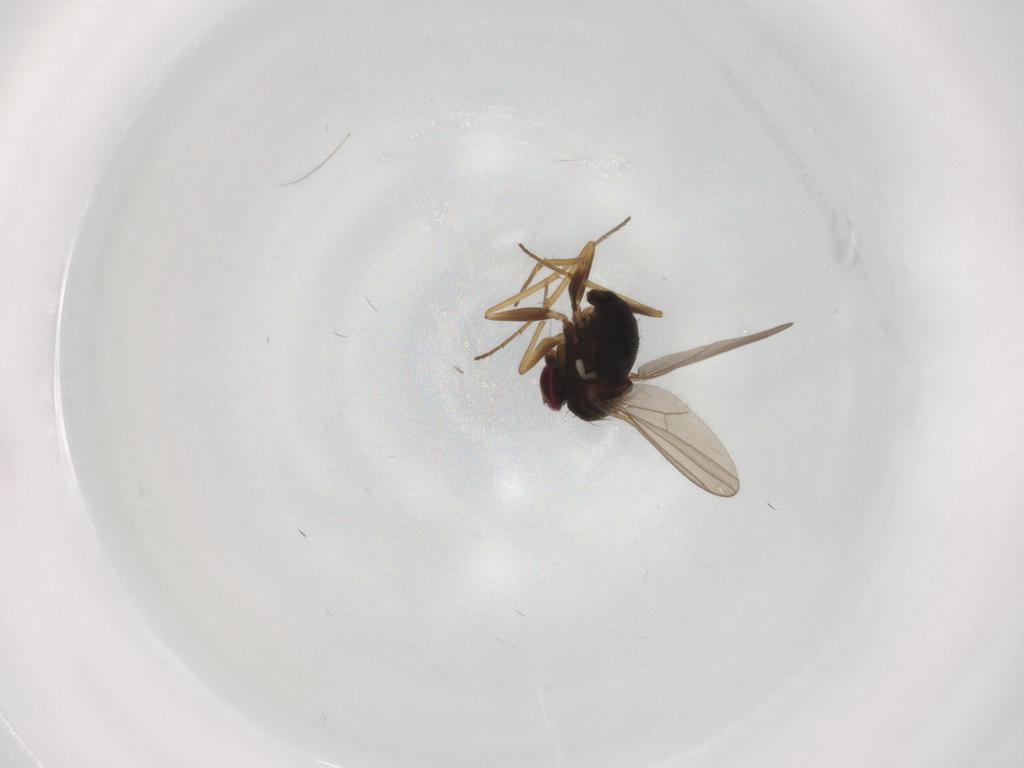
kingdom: Animalia
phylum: Arthropoda
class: Insecta
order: Diptera
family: Dolichopodidae
